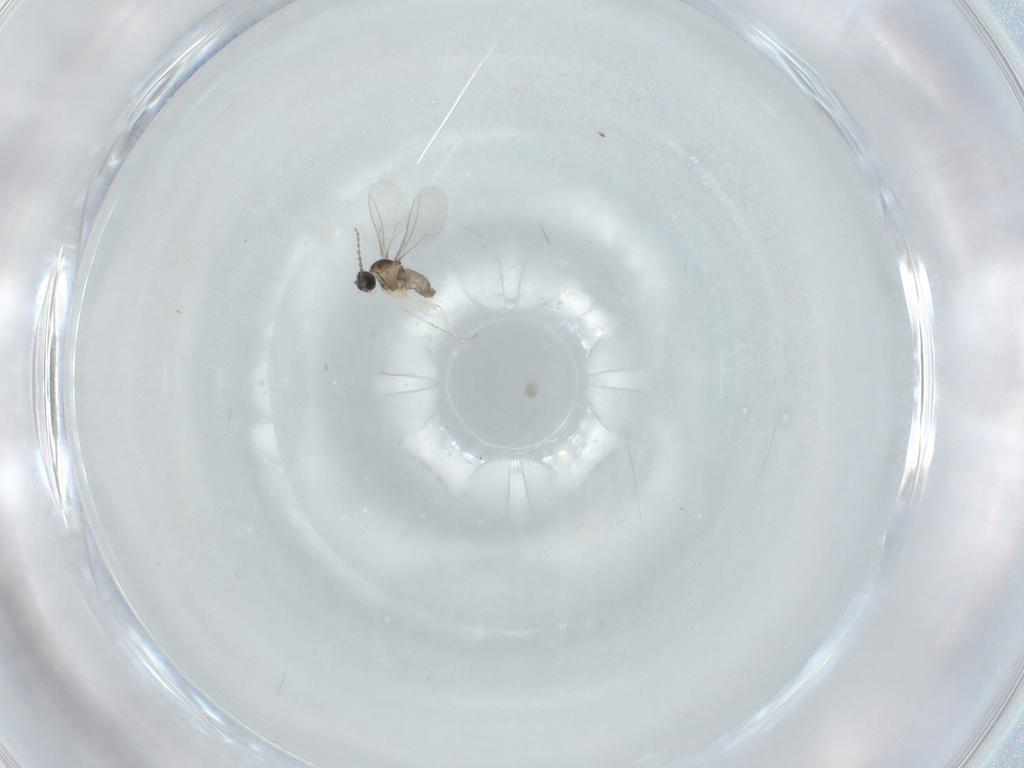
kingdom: Animalia
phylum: Arthropoda
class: Insecta
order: Diptera
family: Cecidomyiidae
